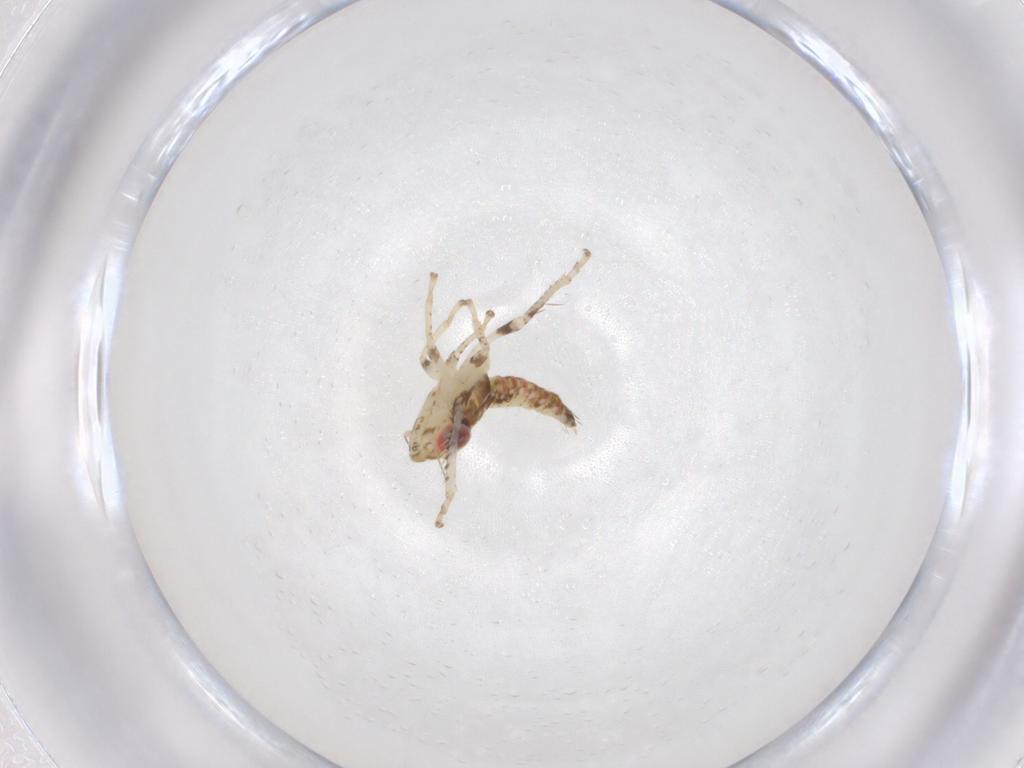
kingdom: Animalia
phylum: Arthropoda
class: Insecta
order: Hemiptera
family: Cicadellidae
